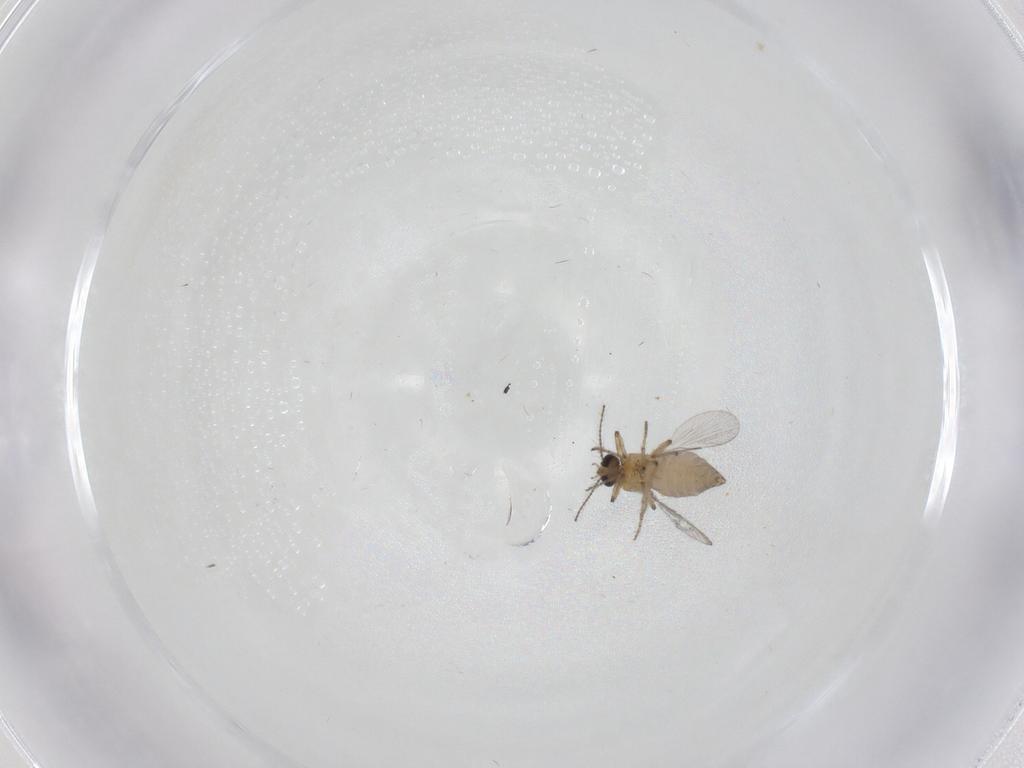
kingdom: Animalia
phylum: Arthropoda
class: Insecta
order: Diptera
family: Ceratopogonidae
